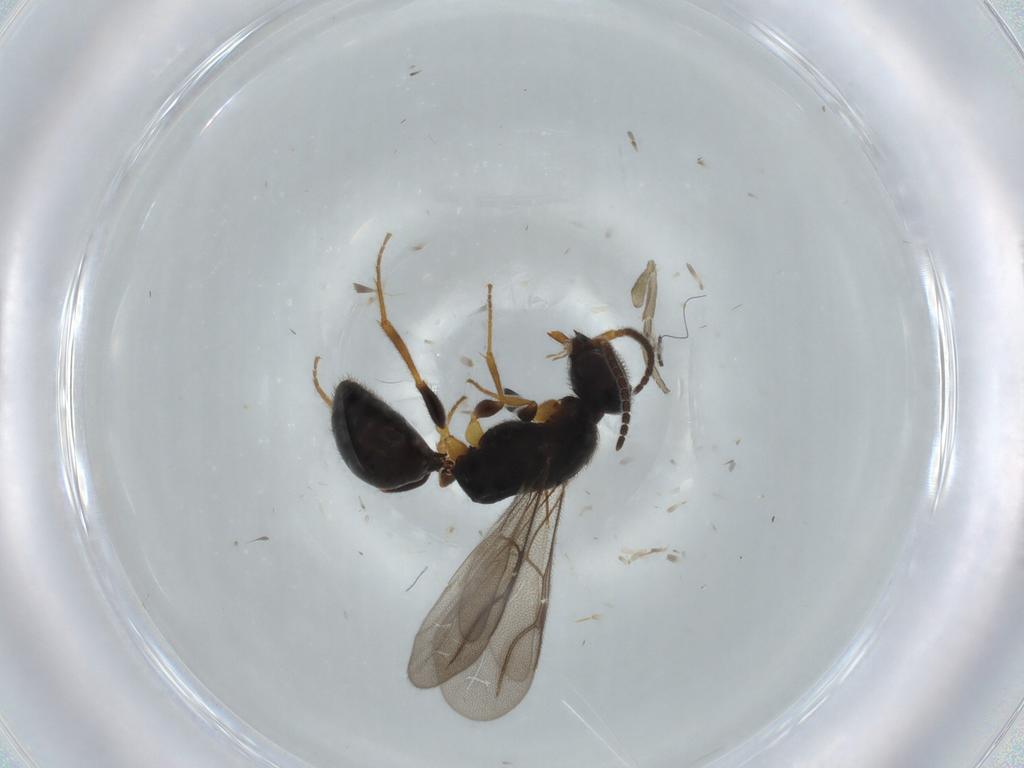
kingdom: Animalia
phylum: Arthropoda
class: Insecta
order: Hymenoptera
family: Bethylidae
